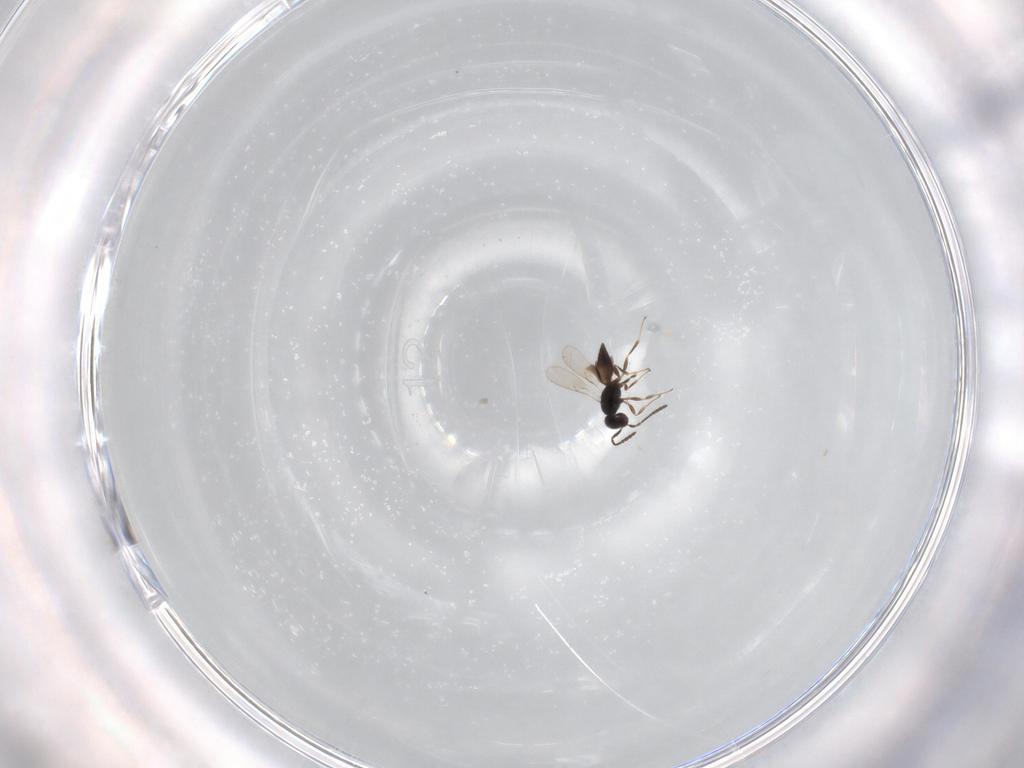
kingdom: Animalia
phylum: Arthropoda
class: Insecta
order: Hymenoptera
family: Scelionidae
